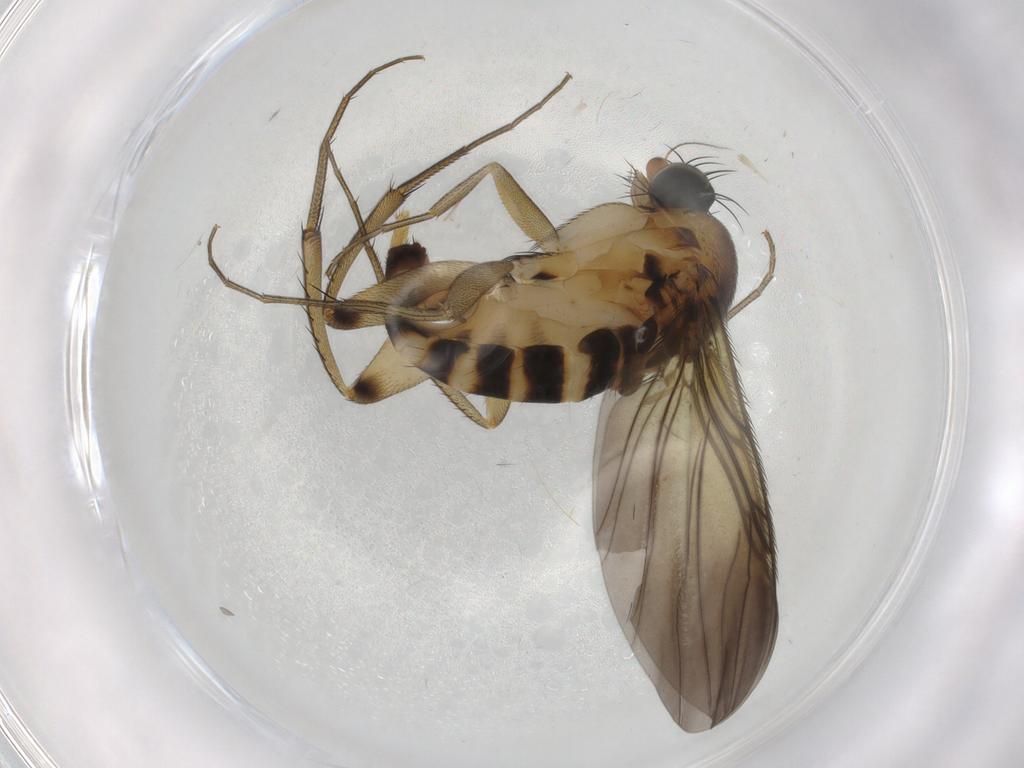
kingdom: Animalia
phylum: Arthropoda
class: Insecta
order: Diptera
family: Phoridae
